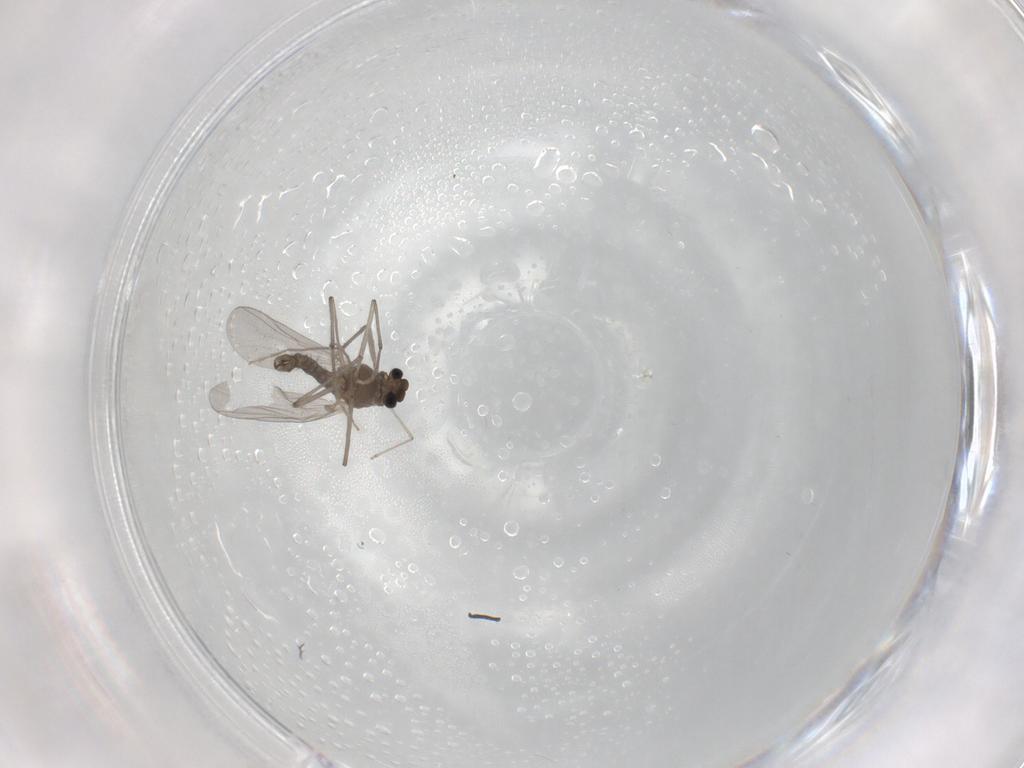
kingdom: Animalia
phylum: Arthropoda
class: Insecta
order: Diptera
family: Chironomidae
